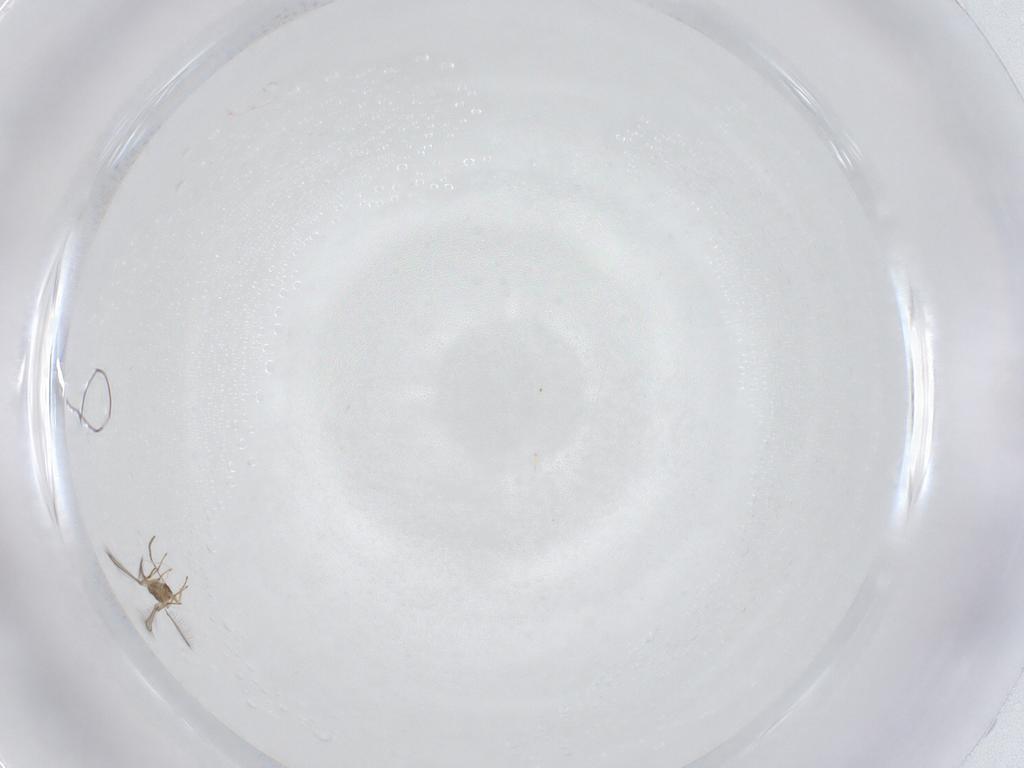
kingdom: Animalia
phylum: Arthropoda
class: Insecta
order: Hymenoptera
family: Mymaridae
